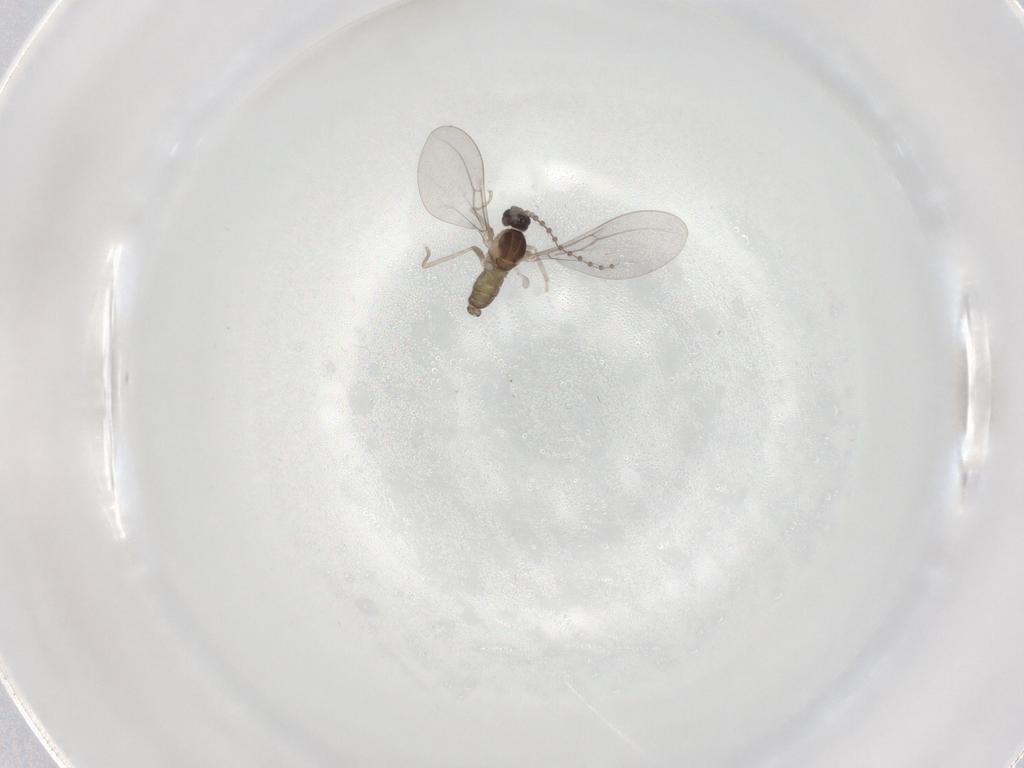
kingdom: Animalia
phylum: Arthropoda
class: Insecta
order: Diptera
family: Cecidomyiidae
